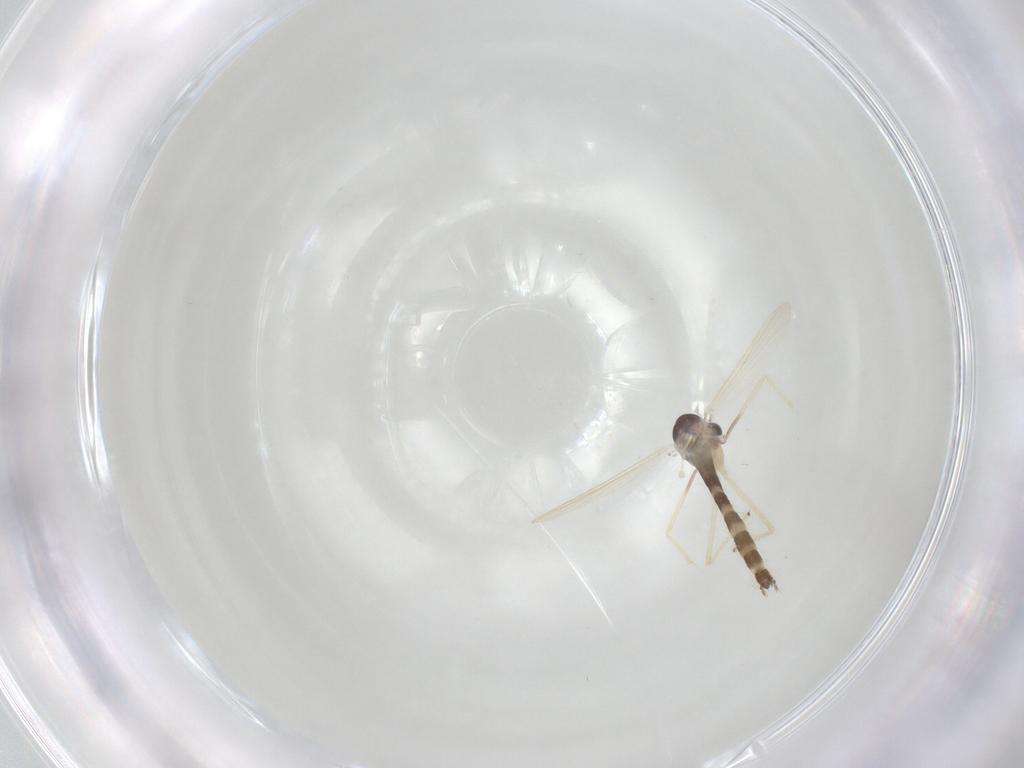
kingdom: Animalia
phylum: Arthropoda
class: Insecta
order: Diptera
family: Chironomidae
